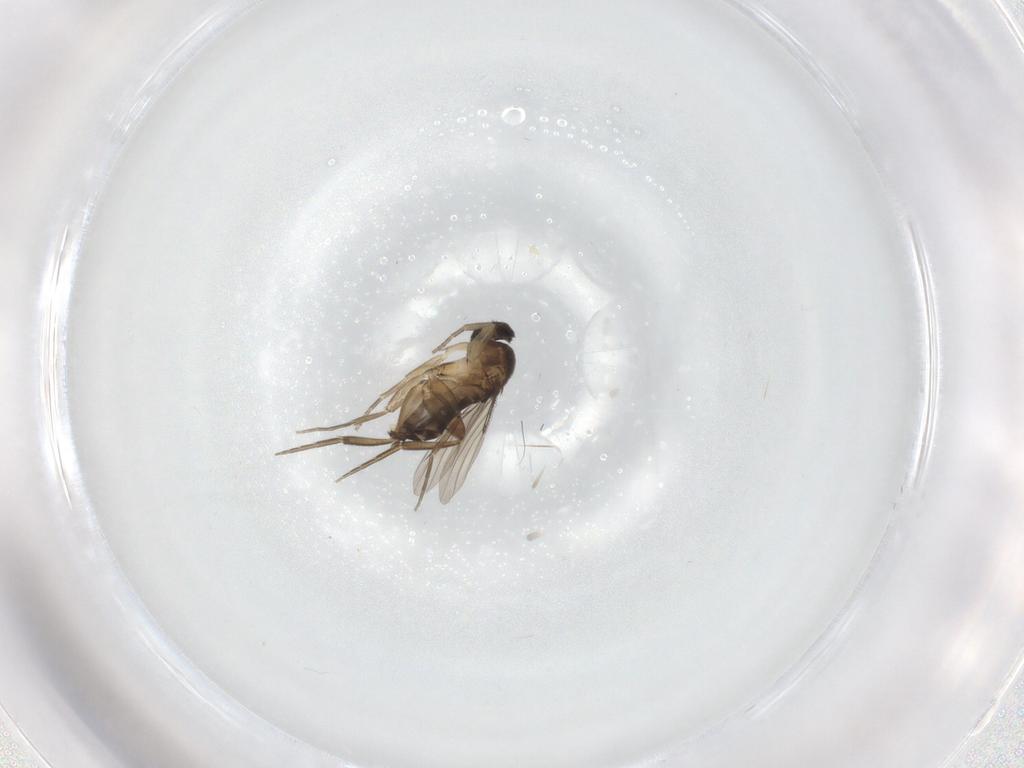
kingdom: Animalia
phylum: Arthropoda
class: Insecta
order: Diptera
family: Phoridae
